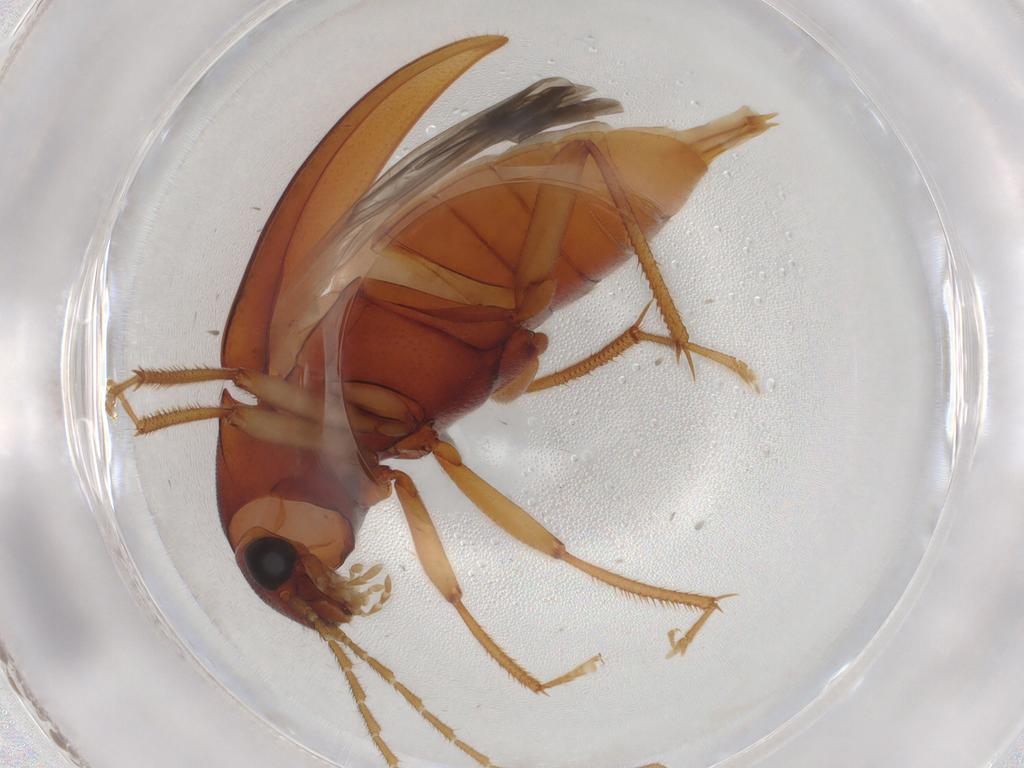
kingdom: Animalia
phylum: Arthropoda
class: Insecta
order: Coleoptera
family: Ptilodactylidae
